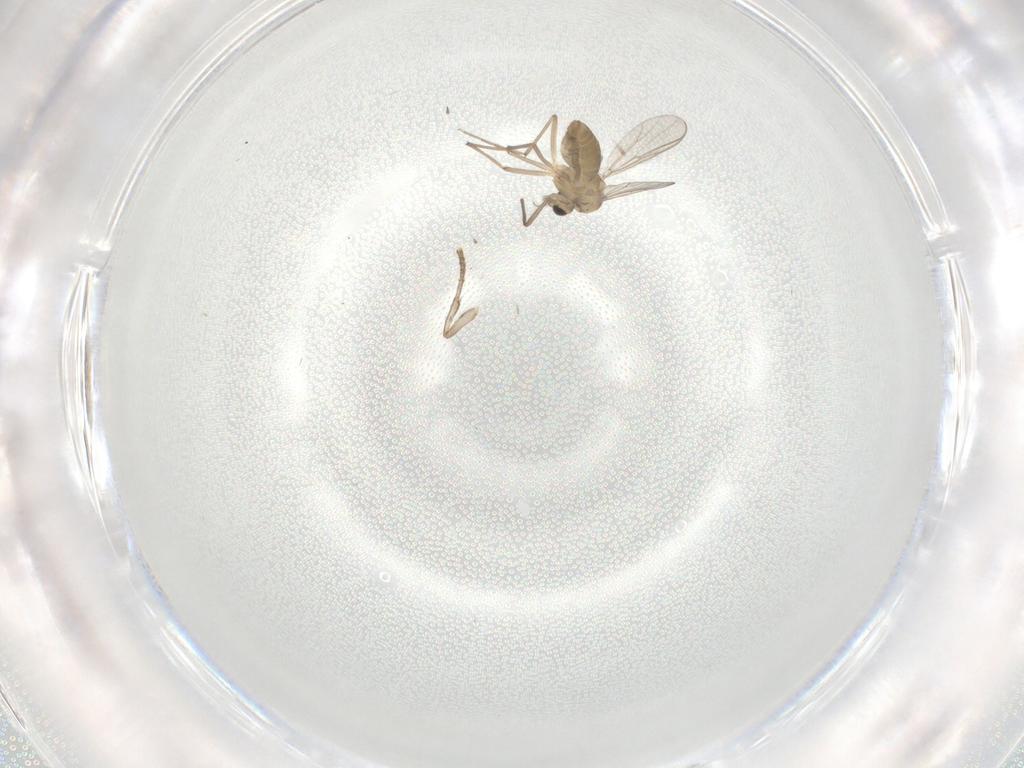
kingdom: Animalia
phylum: Arthropoda
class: Insecta
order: Diptera
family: Chironomidae
